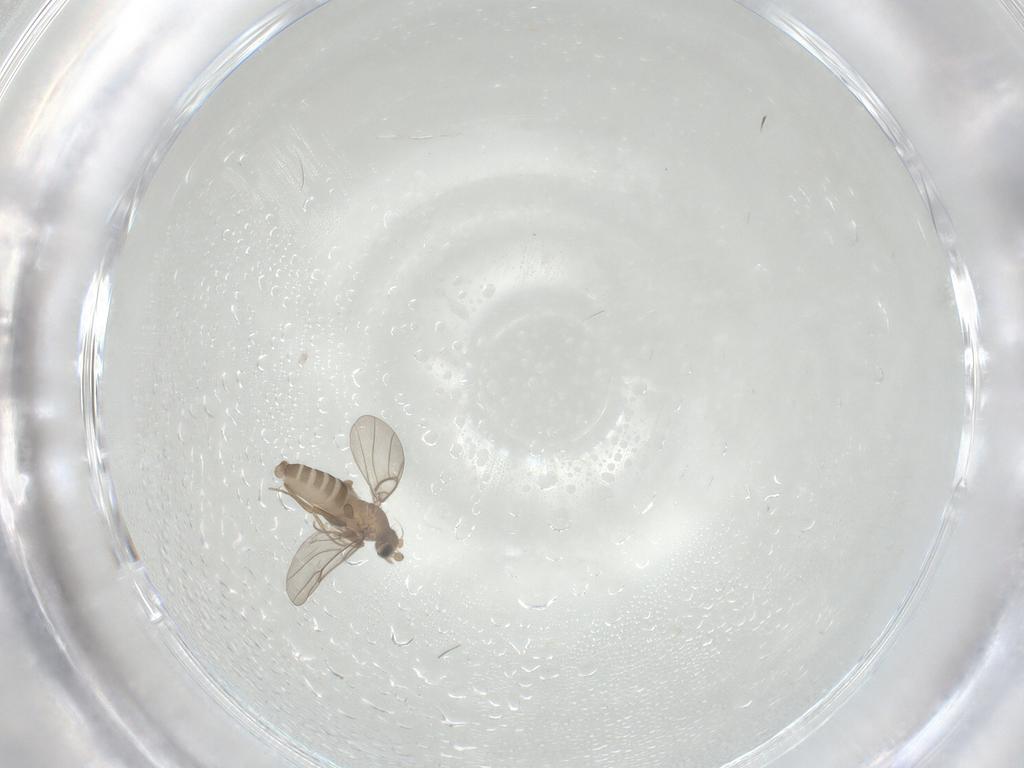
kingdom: Animalia
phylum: Arthropoda
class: Insecta
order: Diptera
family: Phoridae
